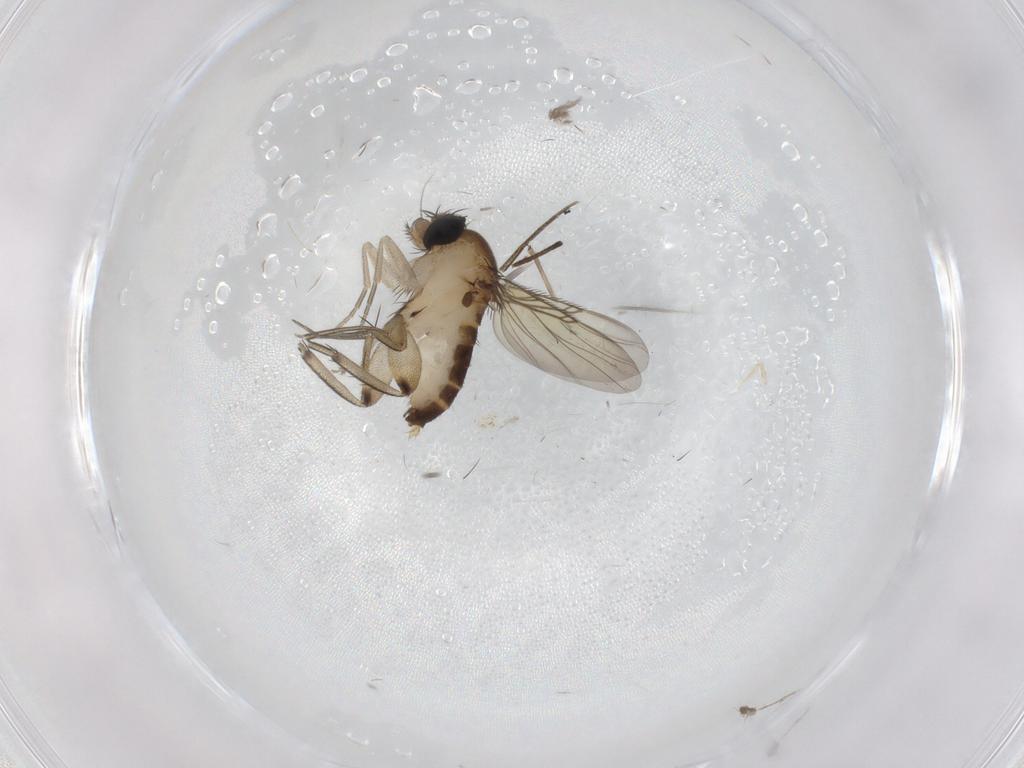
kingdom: Animalia
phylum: Arthropoda
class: Insecta
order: Diptera
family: Phoridae
